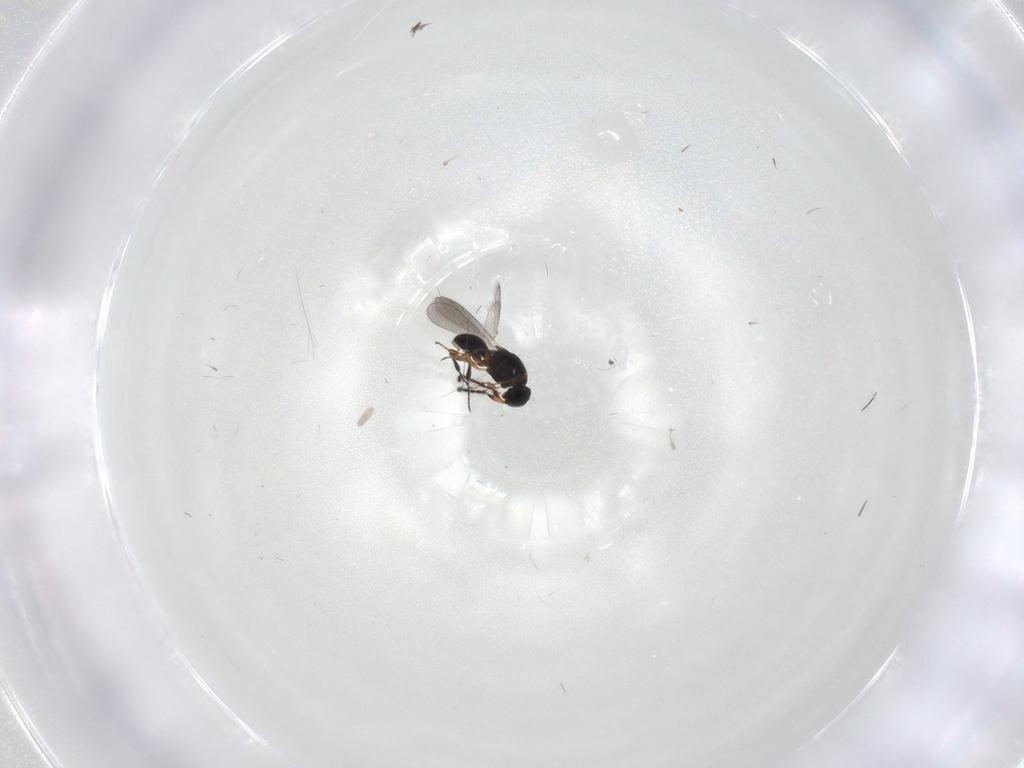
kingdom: Animalia
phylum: Arthropoda
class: Insecta
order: Hymenoptera
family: Platygastridae
